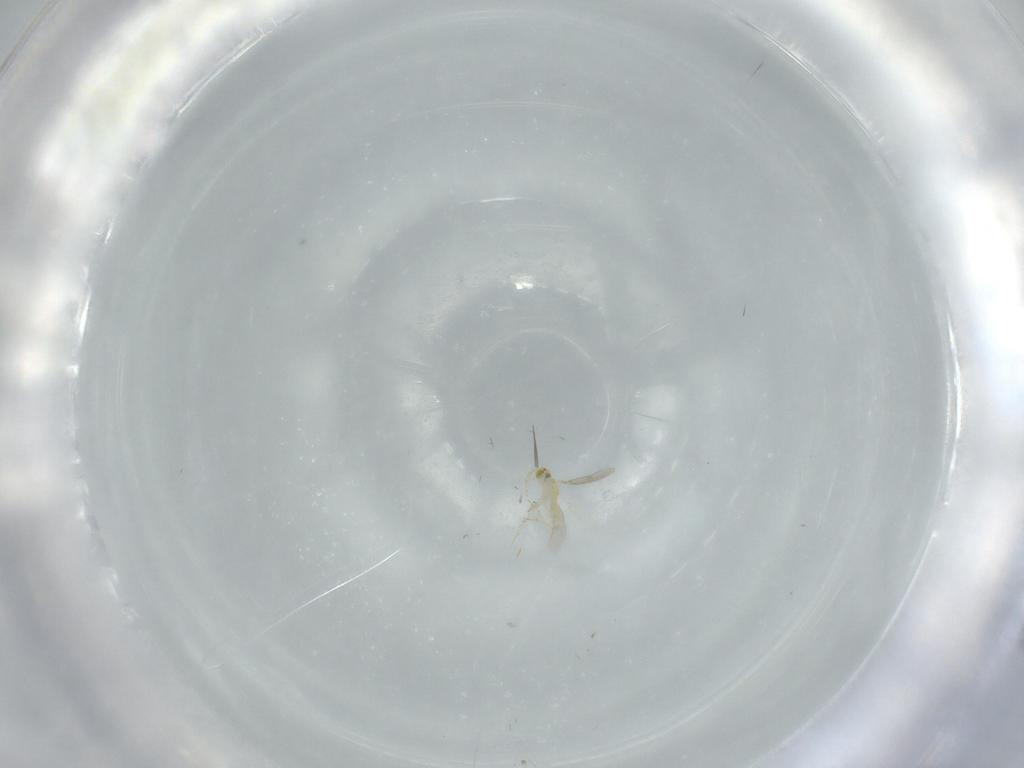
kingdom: Animalia
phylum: Arthropoda
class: Insecta
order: Hymenoptera
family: Aphelinidae
